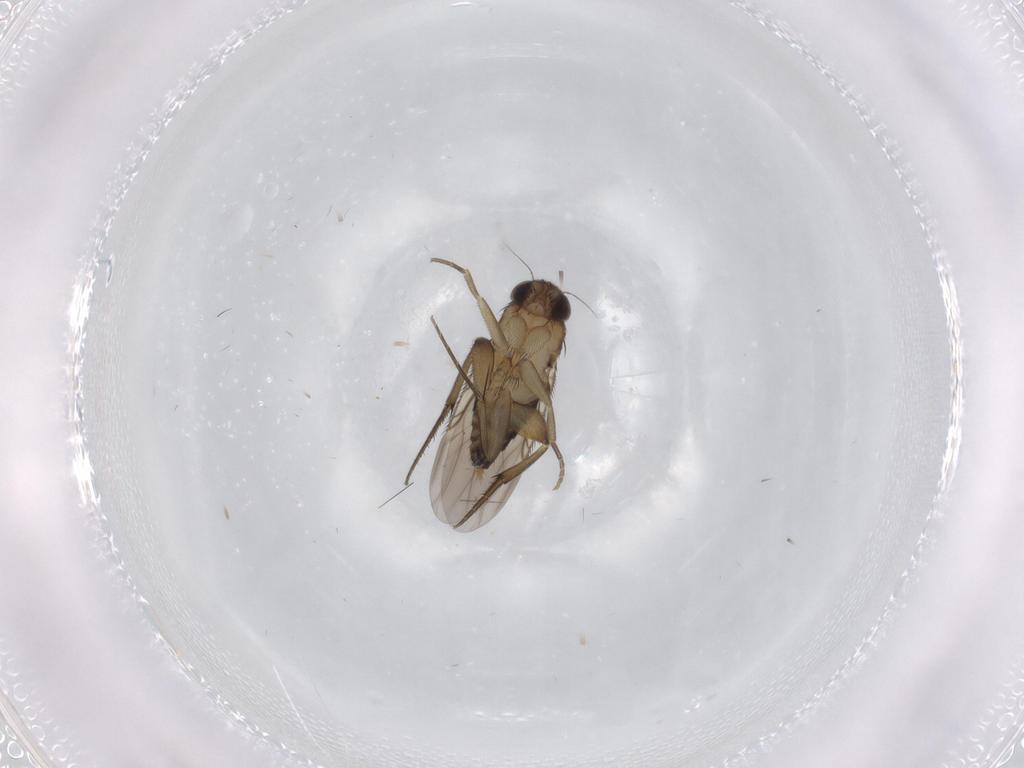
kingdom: Animalia
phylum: Arthropoda
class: Insecta
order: Diptera
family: Phoridae
